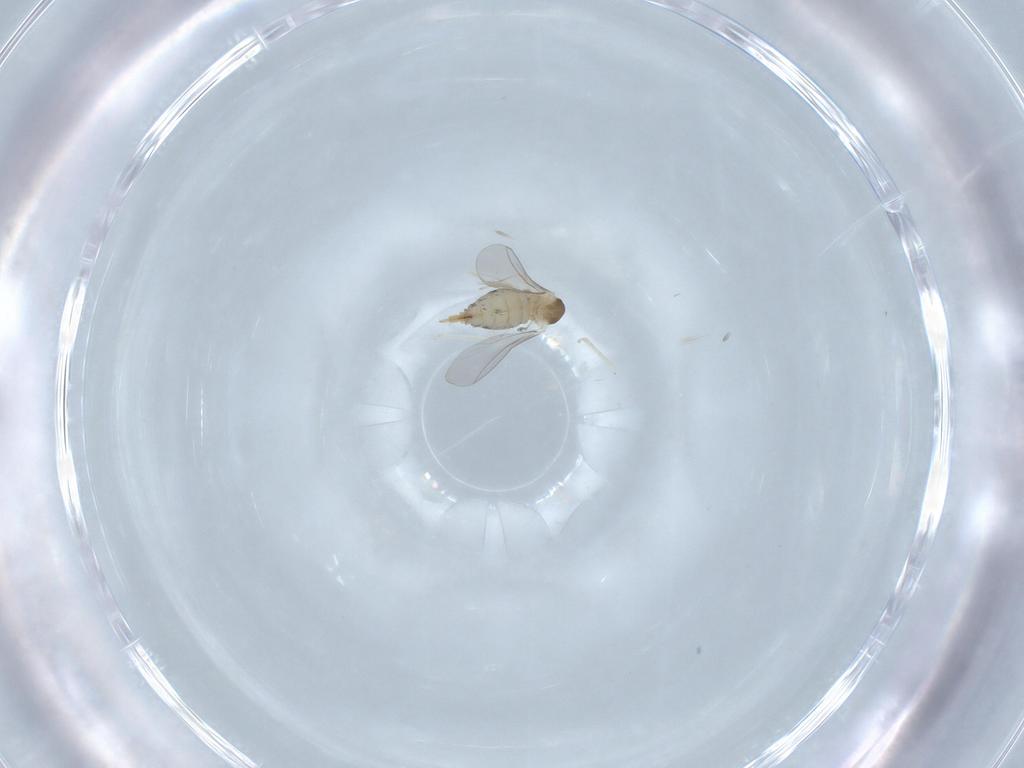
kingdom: Animalia
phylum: Arthropoda
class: Insecta
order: Diptera
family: Cecidomyiidae
